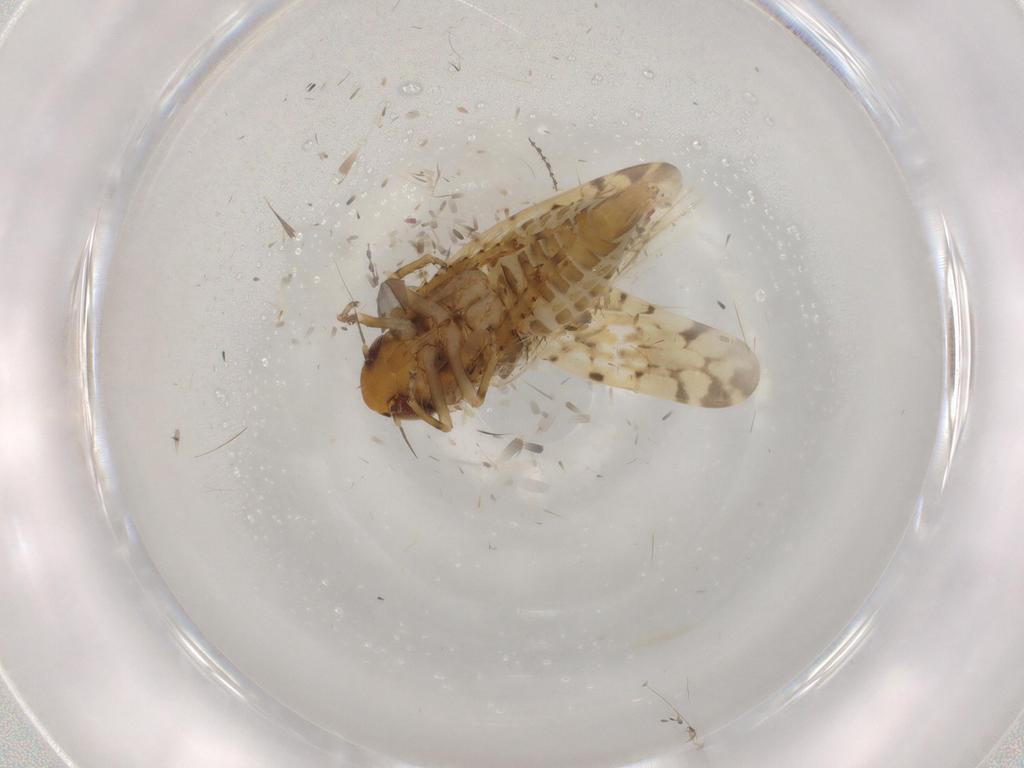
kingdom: Animalia
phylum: Arthropoda
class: Insecta
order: Hemiptera
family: Cicadellidae
